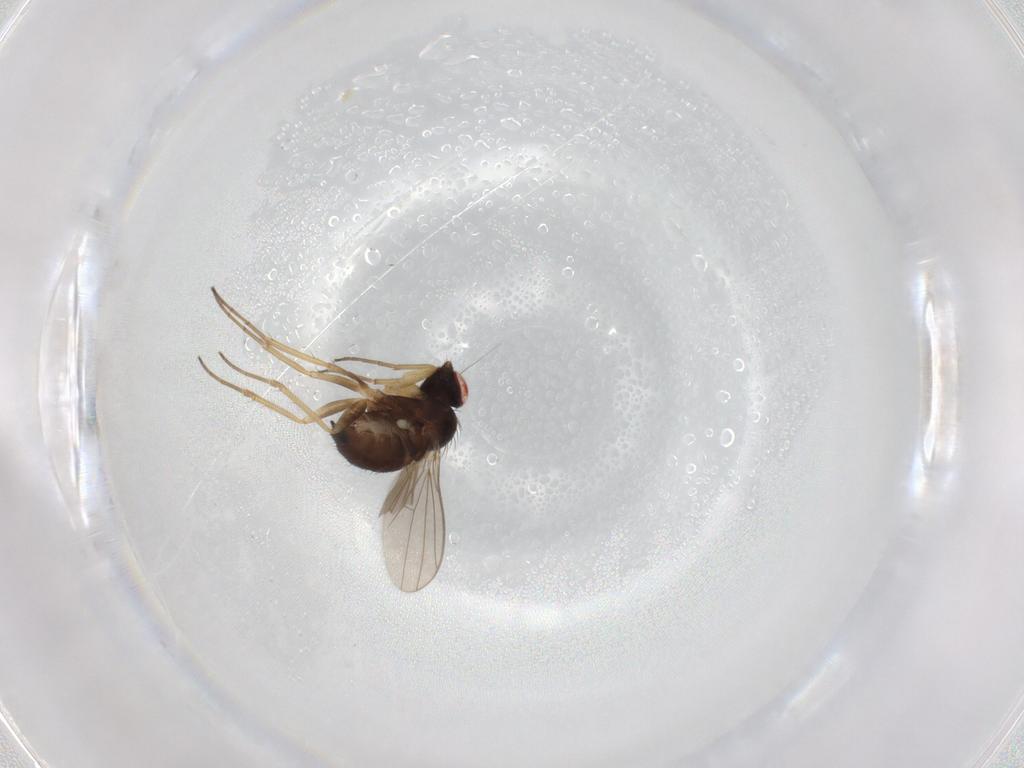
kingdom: Animalia
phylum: Arthropoda
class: Insecta
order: Diptera
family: Dolichopodidae
